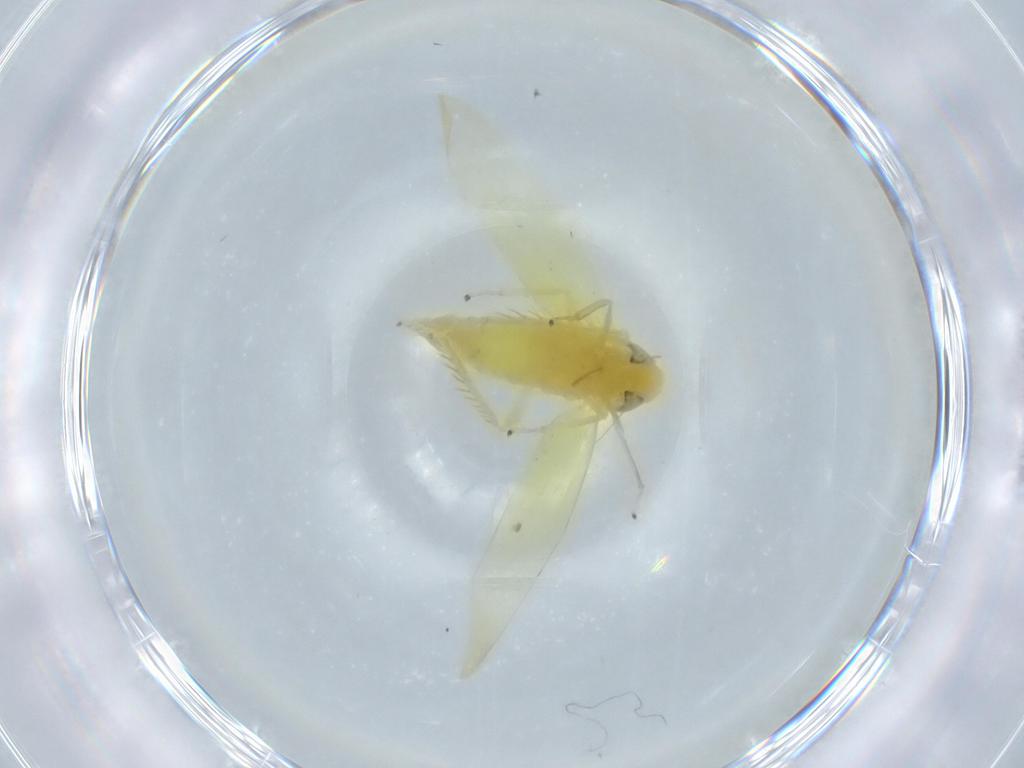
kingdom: Animalia
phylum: Arthropoda
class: Insecta
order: Hemiptera
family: Cicadellidae
